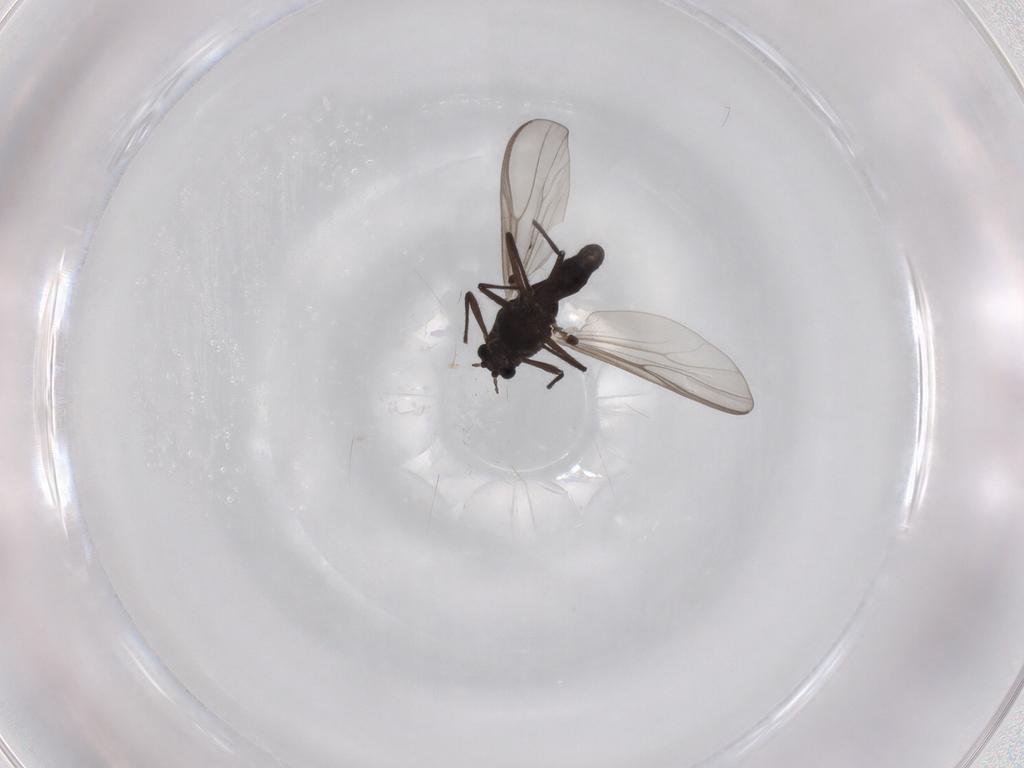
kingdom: Animalia
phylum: Arthropoda
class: Insecta
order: Diptera
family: Chironomidae
